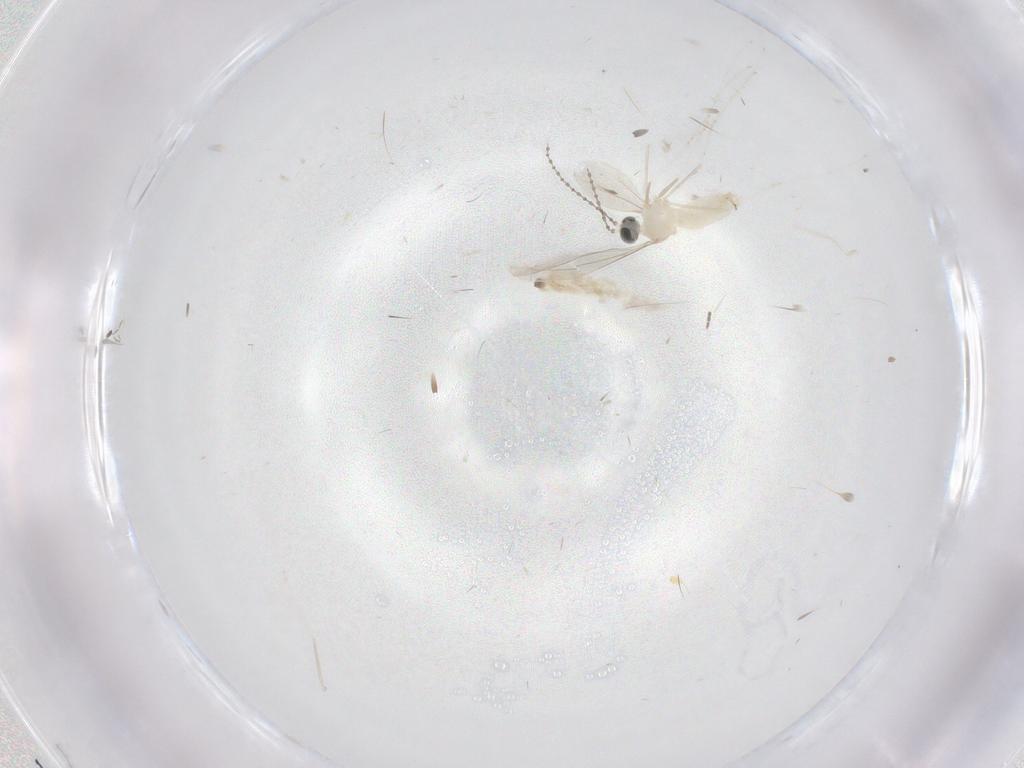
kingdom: Animalia
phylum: Arthropoda
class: Insecta
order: Diptera
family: Cecidomyiidae
